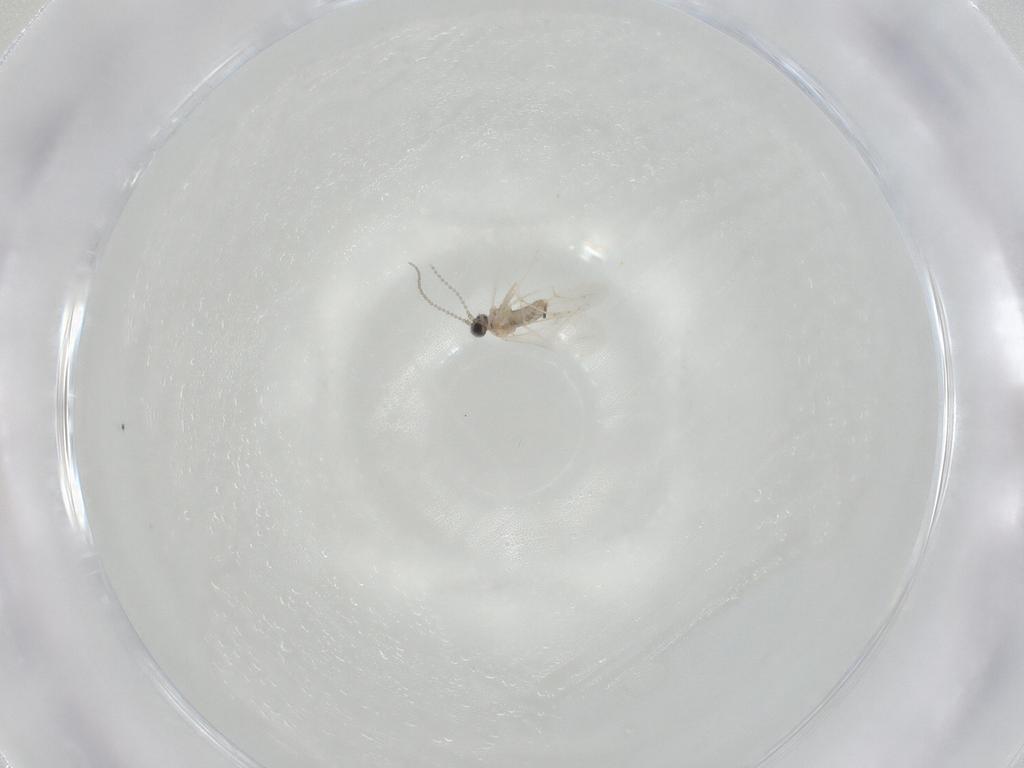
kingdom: Animalia
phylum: Arthropoda
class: Insecta
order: Diptera
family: Cecidomyiidae
